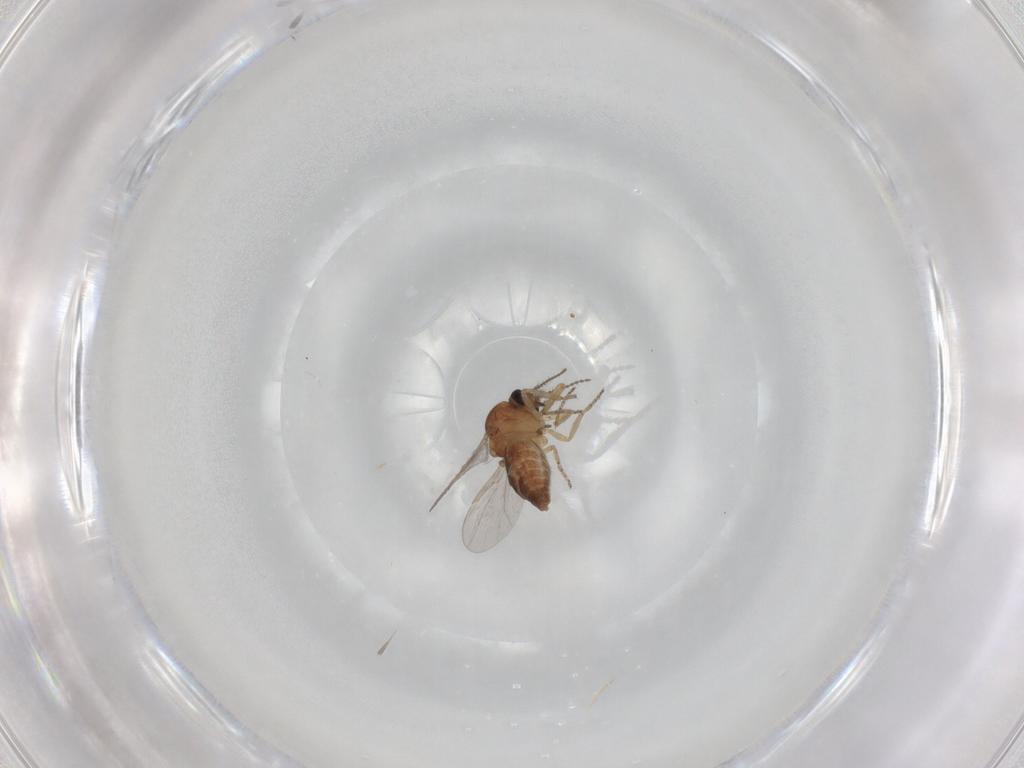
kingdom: Animalia
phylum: Arthropoda
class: Insecta
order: Diptera
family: Ceratopogonidae
